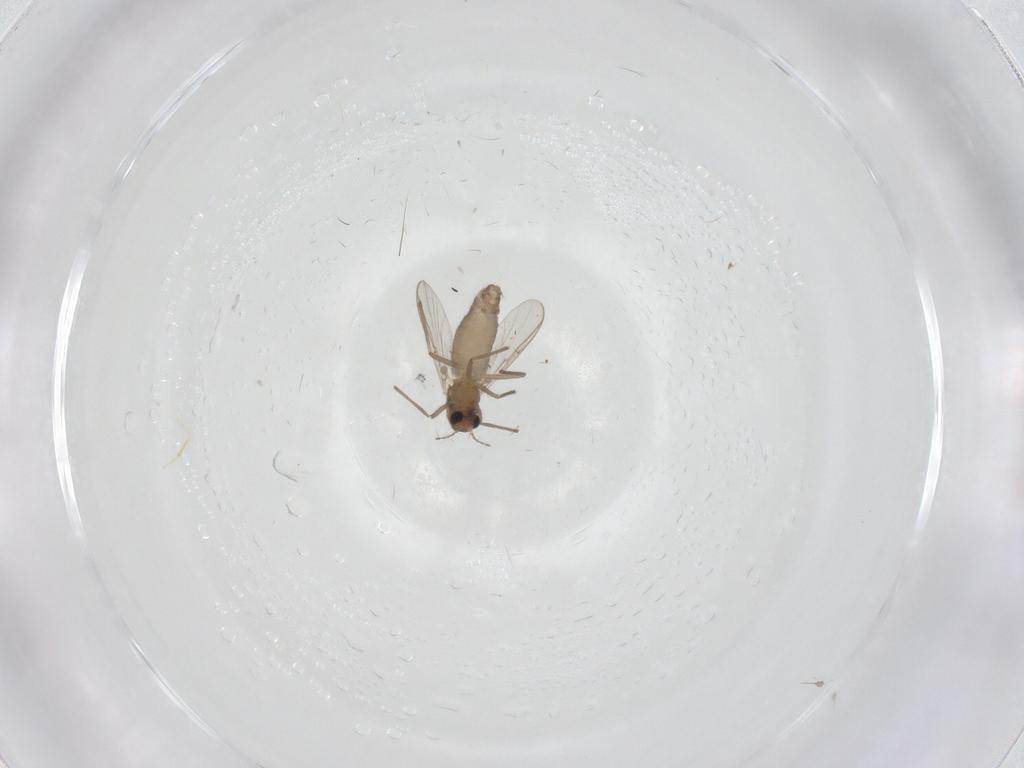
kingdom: Animalia
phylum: Arthropoda
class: Insecta
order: Diptera
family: Chironomidae
